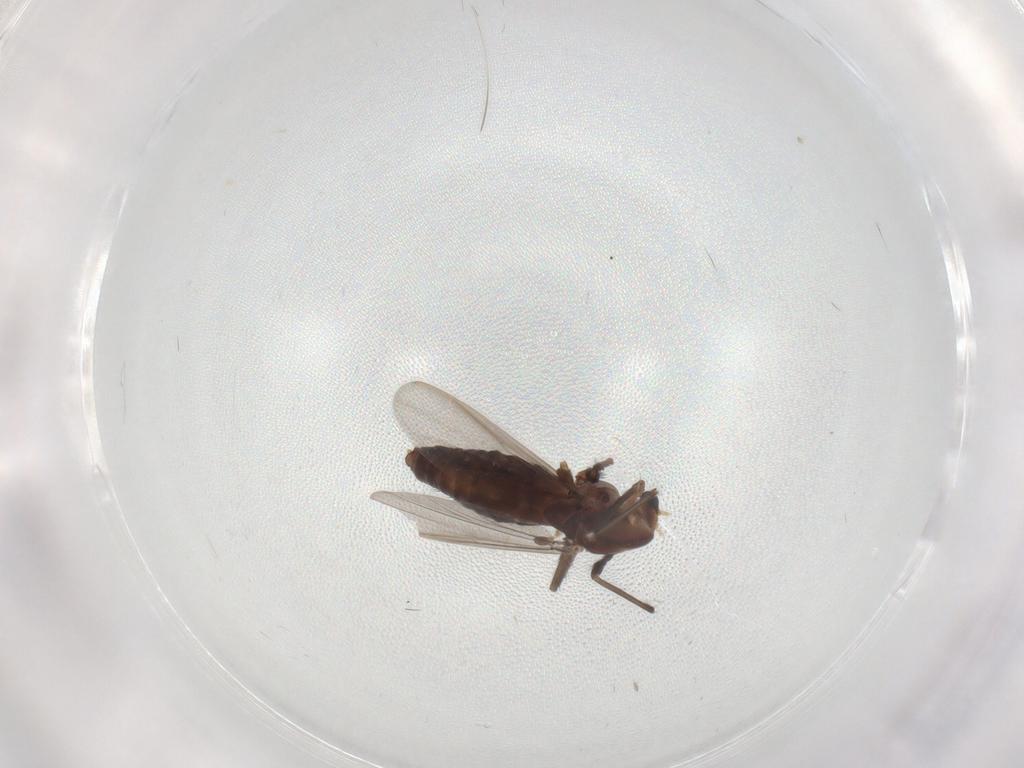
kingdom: Animalia
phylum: Arthropoda
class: Insecta
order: Diptera
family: Chironomidae
